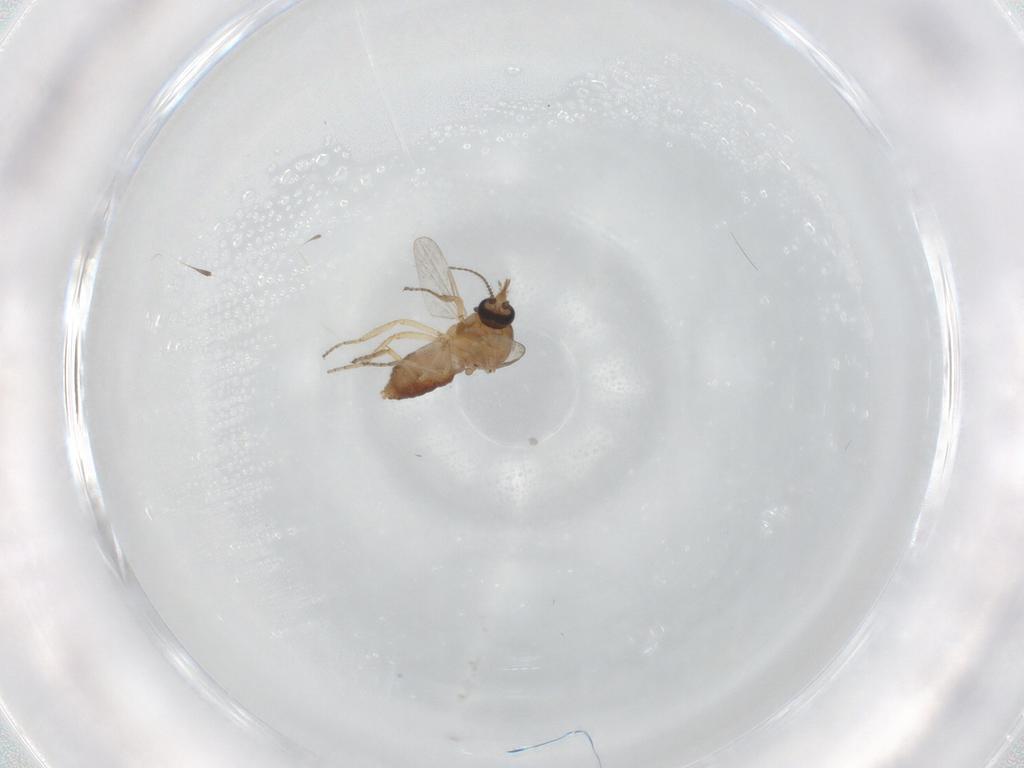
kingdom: Animalia
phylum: Arthropoda
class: Insecta
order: Diptera
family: Ceratopogonidae
